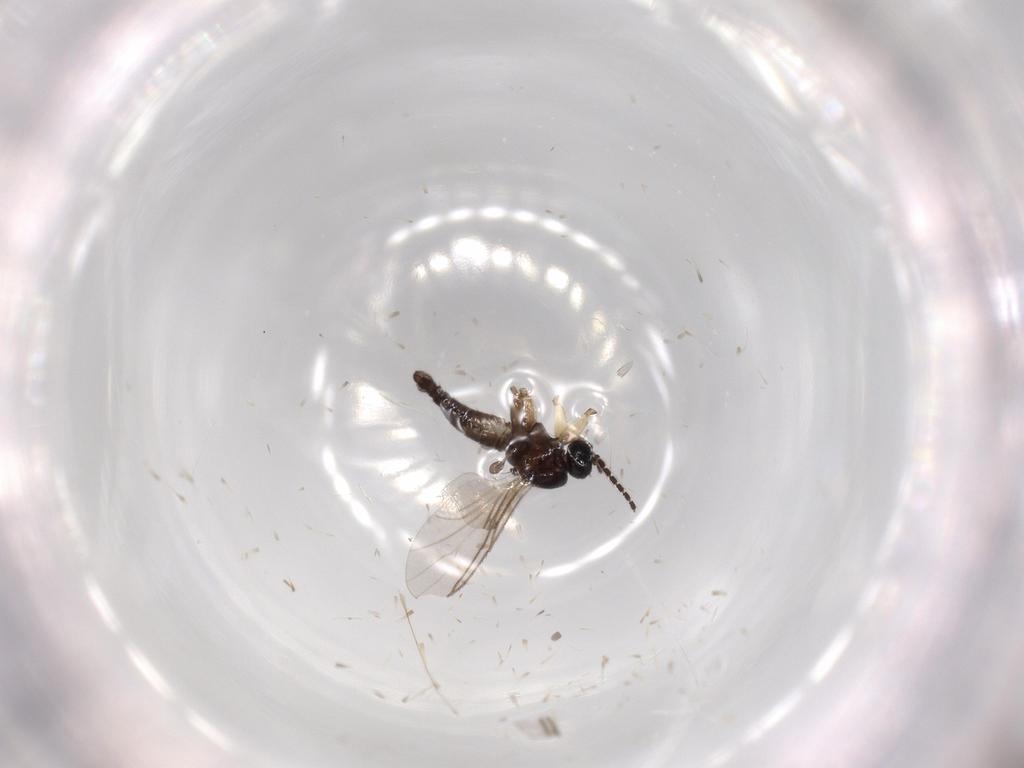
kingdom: Animalia
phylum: Arthropoda
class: Insecta
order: Diptera
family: Sciaridae
